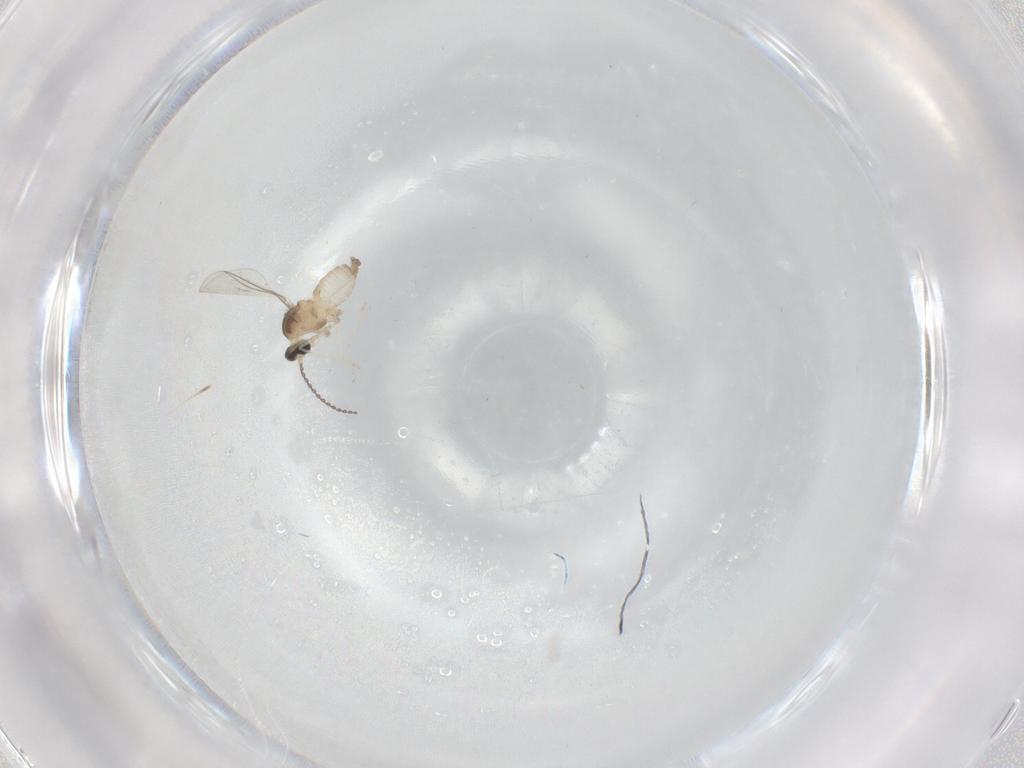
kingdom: Animalia
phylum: Arthropoda
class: Insecta
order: Diptera
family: Cecidomyiidae
